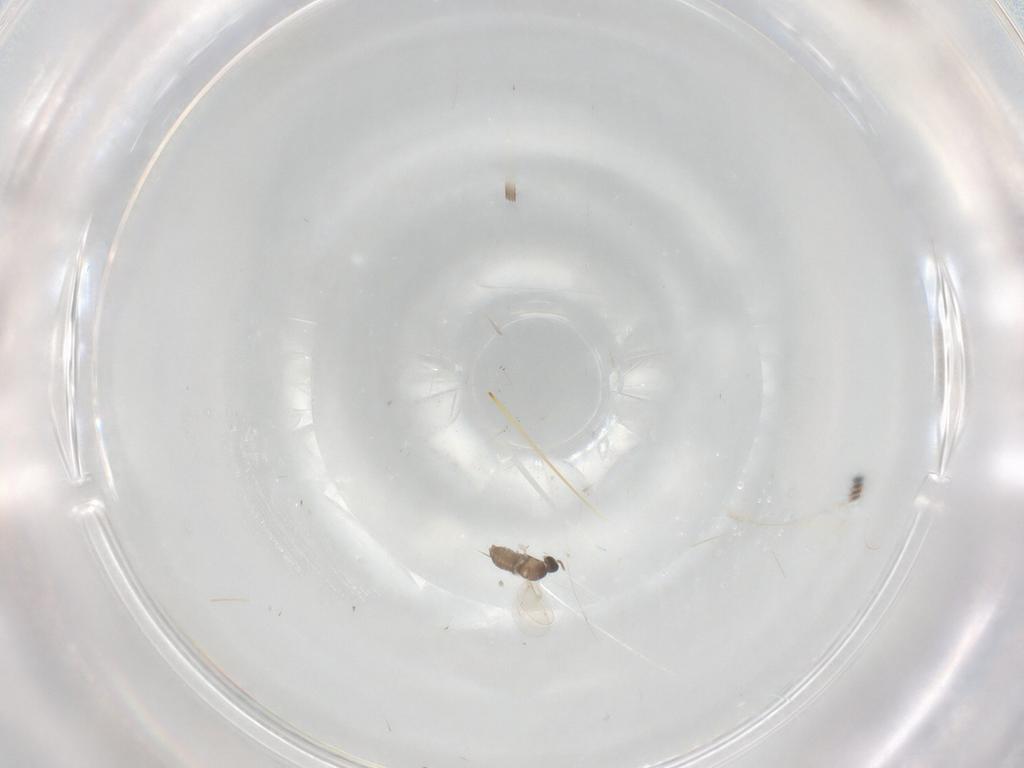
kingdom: Animalia
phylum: Arthropoda
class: Insecta
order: Diptera
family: Cecidomyiidae
